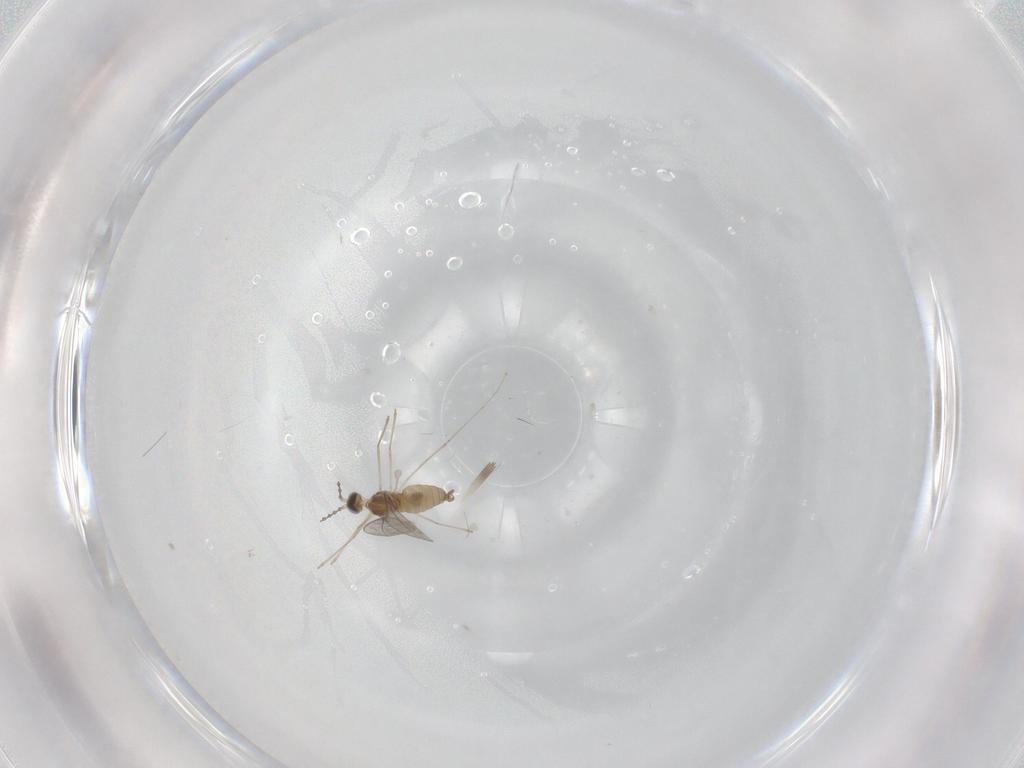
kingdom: Animalia
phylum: Arthropoda
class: Insecta
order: Diptera
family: Cecidomyiidae
